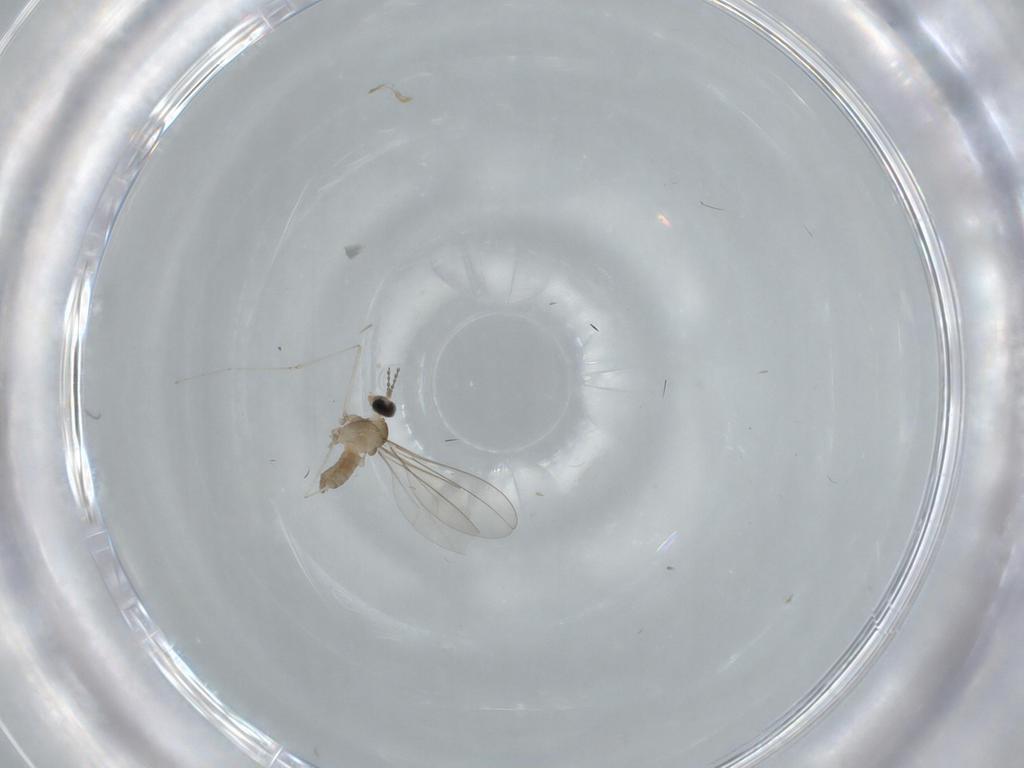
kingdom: Animalia
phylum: Arthropoda
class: Insecta
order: Diptera
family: Cecidomyiidae
